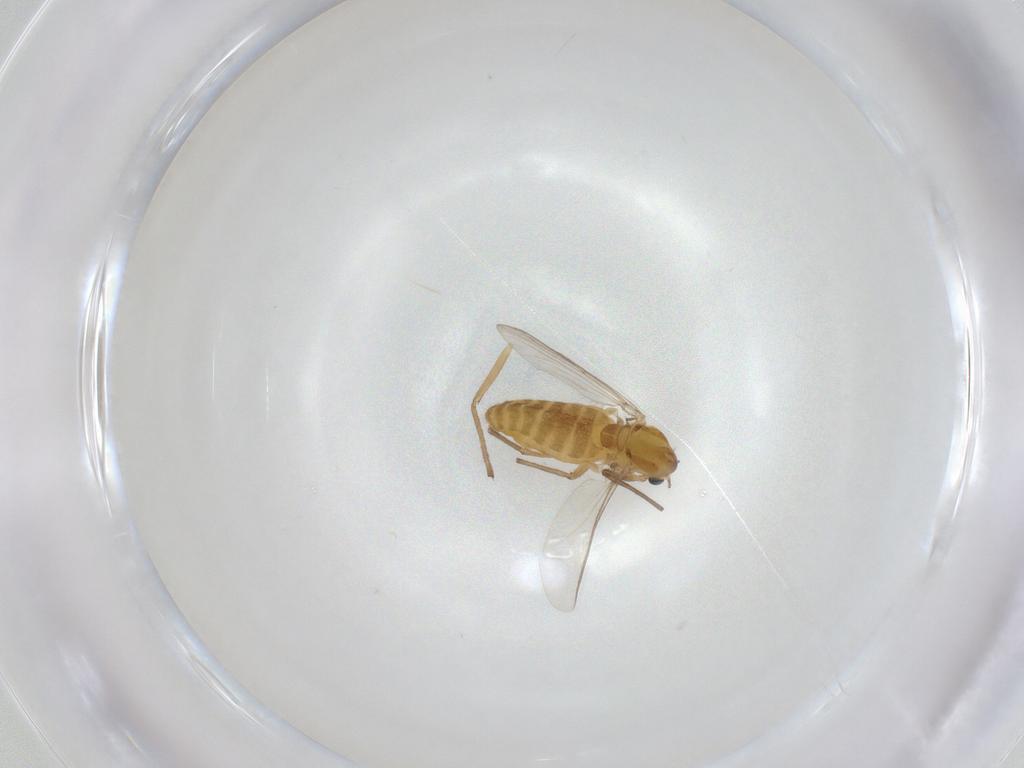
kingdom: Animalia
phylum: Arthropoda
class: Insecta
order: Diptera
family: Chironomidae
